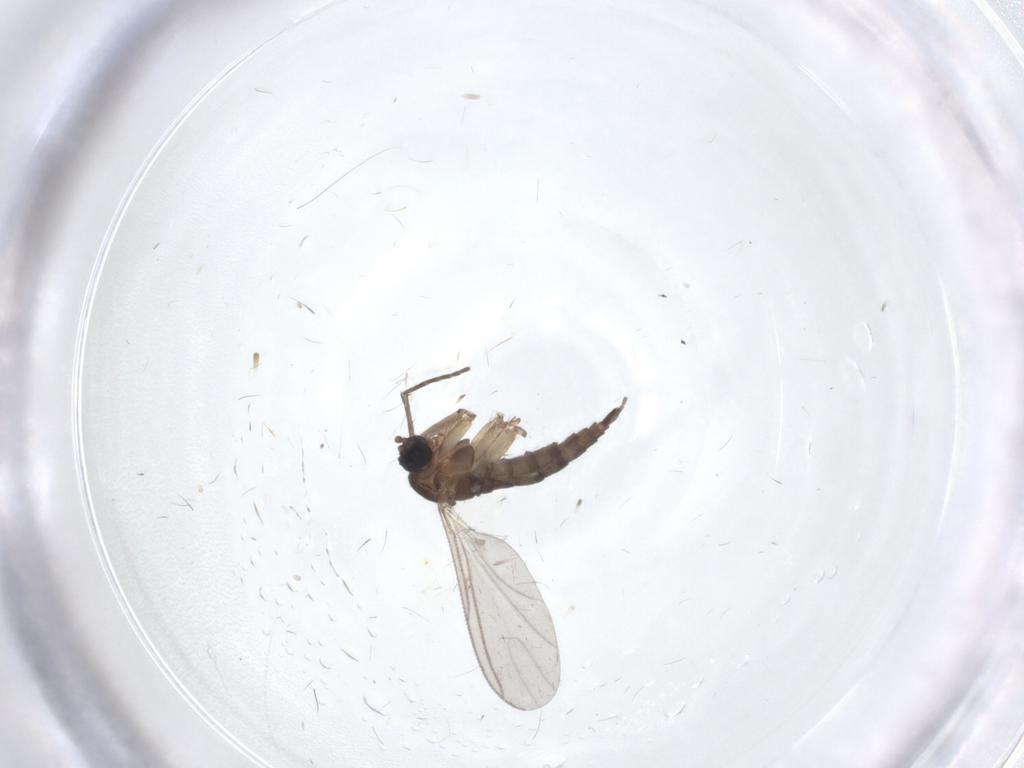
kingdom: Animalia
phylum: Arthropoda
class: Insecta
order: Diptera
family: Sciaridae
